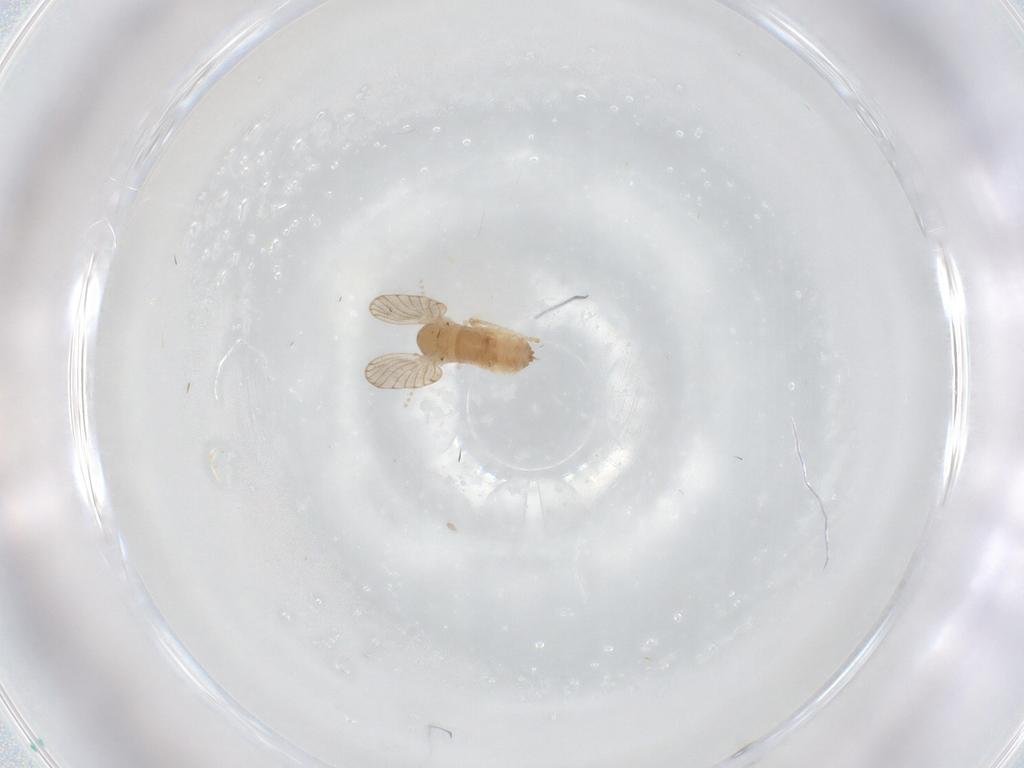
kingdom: Animalia
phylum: Arthropoda
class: Insecta
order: Diptera
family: Psychodidae
